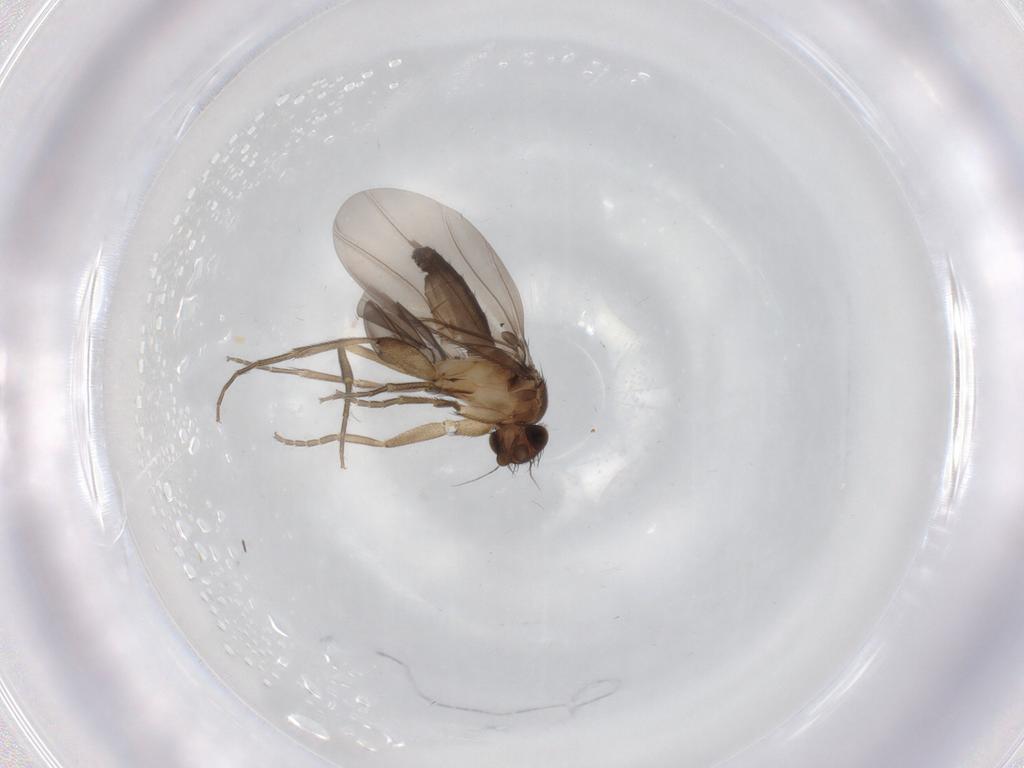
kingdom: Animalia
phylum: Arthropoda
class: Insecta
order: Diptera
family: Phoridae
